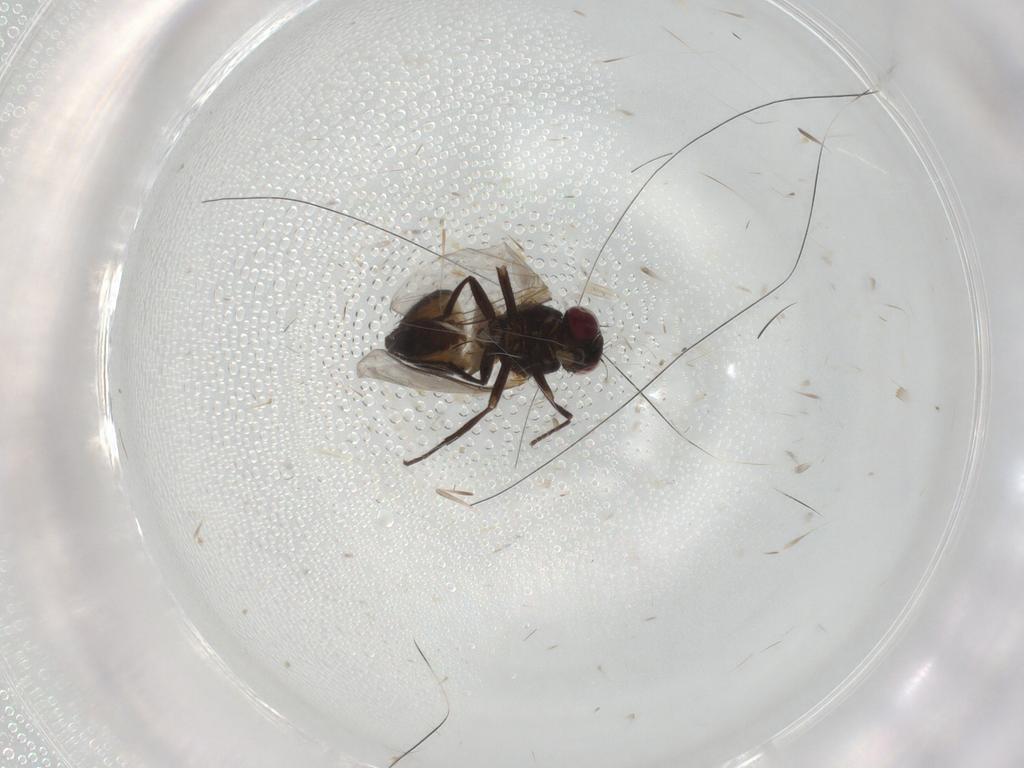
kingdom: Animalia
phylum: Arthropoda
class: Insecta
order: Diptera
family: Agromyzidae
